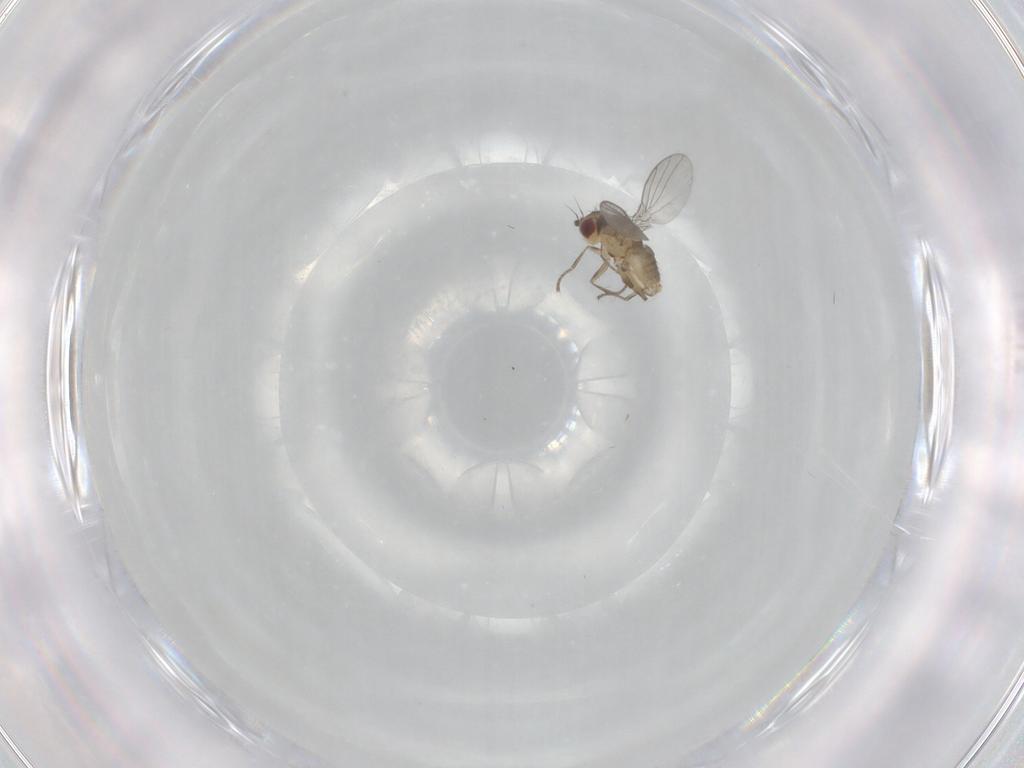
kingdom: Animalia
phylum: Arthropoda
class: Insecta
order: Diptera
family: Agromyzidae
